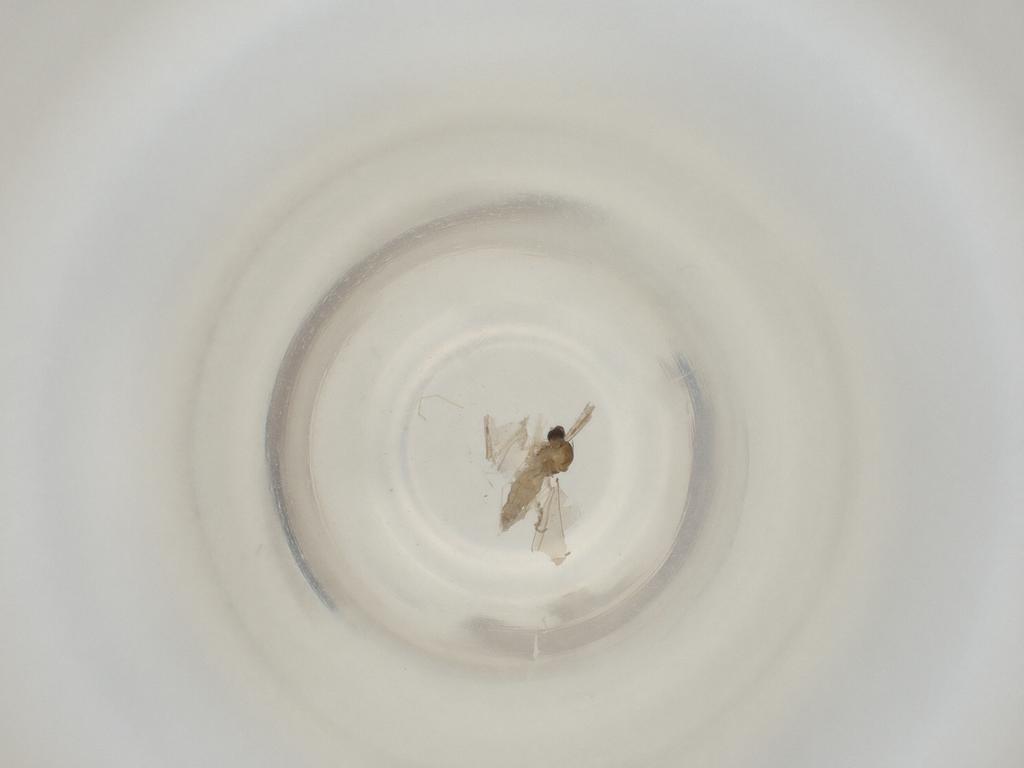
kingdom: Animalia
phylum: Arthropoda
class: Insecta
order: Diptera
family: Cecidomyiidae
